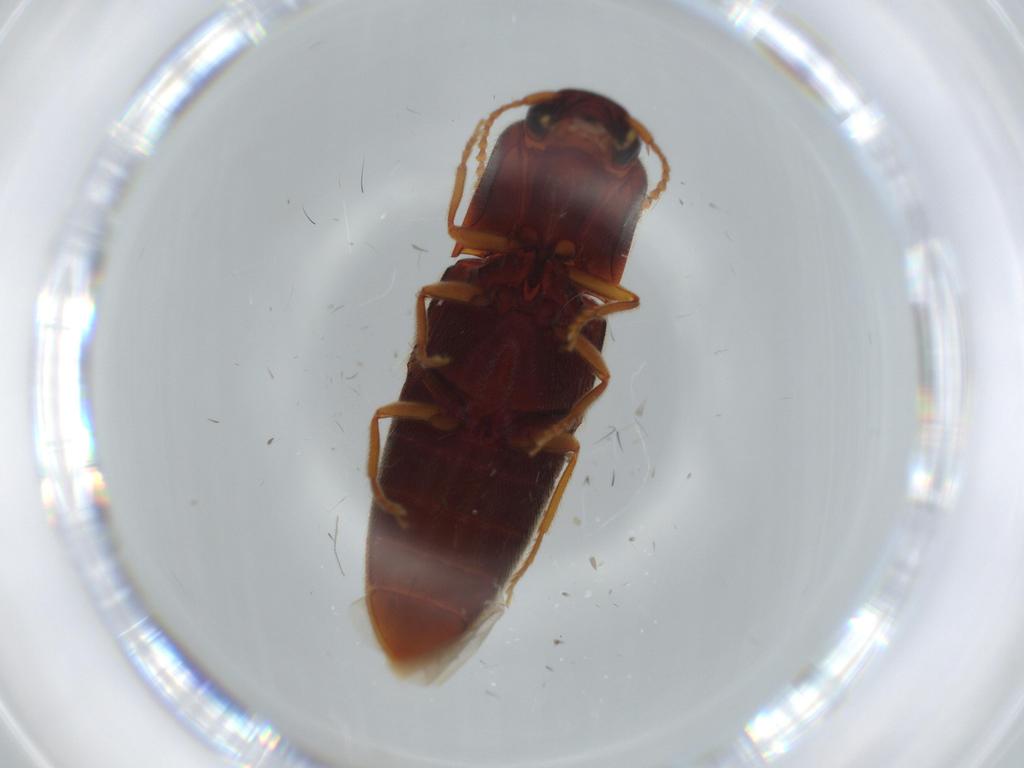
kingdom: Animalia
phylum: Arthropoda
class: Insecta
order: Coleoptera
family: Elateridae
